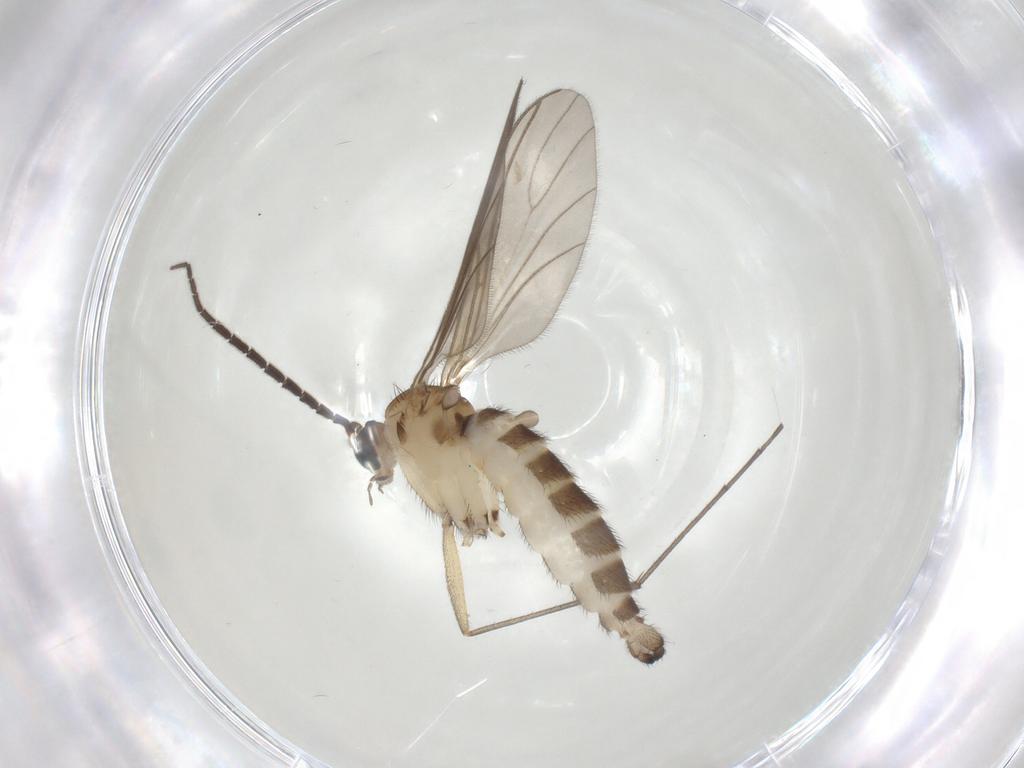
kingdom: Animalia
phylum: Arthropoda
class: Insecta
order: Diptera
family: Sciaridae
